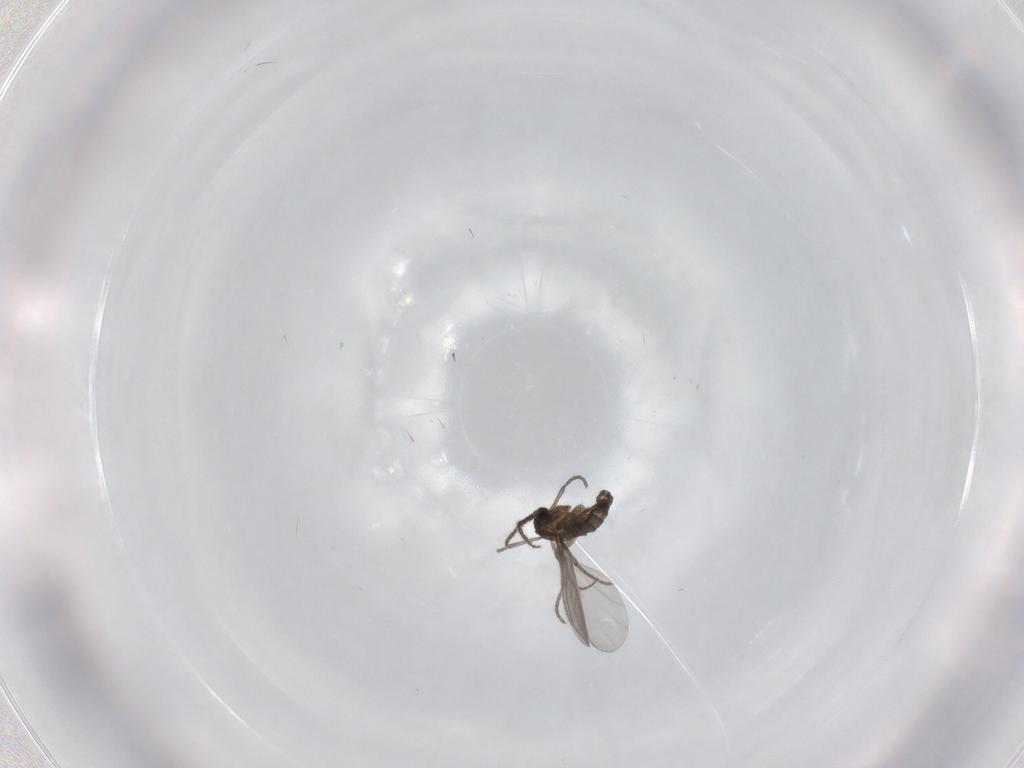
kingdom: Animalia
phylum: Arthropoda
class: Insecta
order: Diptera
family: Sciaridae
